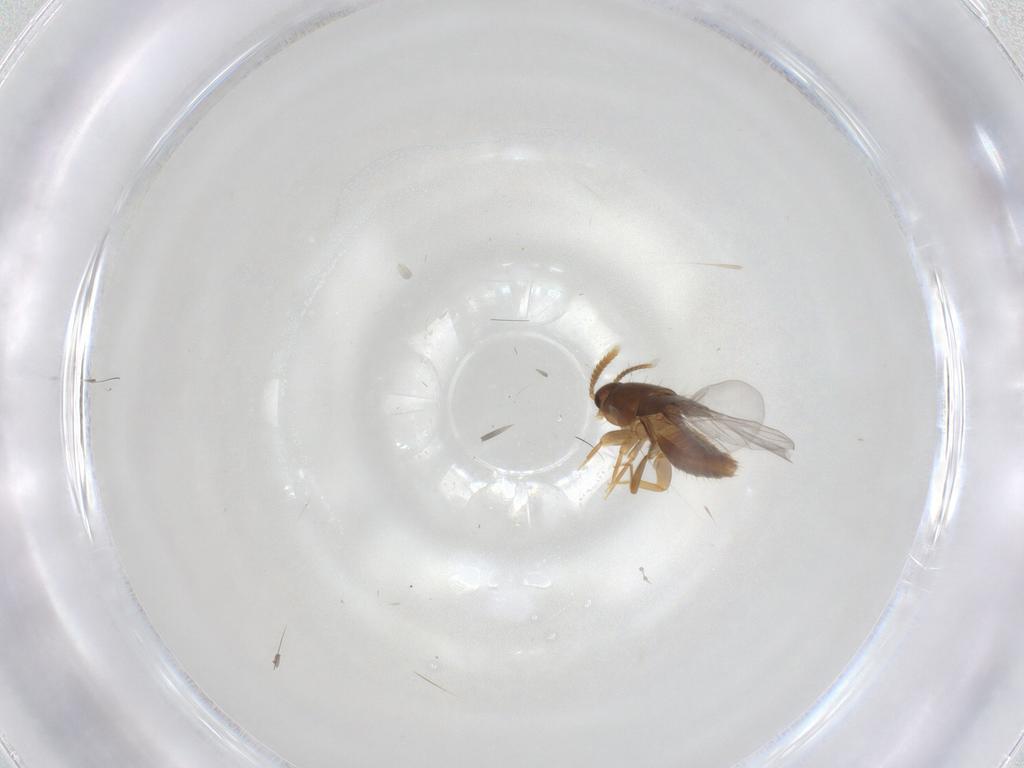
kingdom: Animalia
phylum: Arthropoda
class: Insecta
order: Coleoptera
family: Staphylinidae
